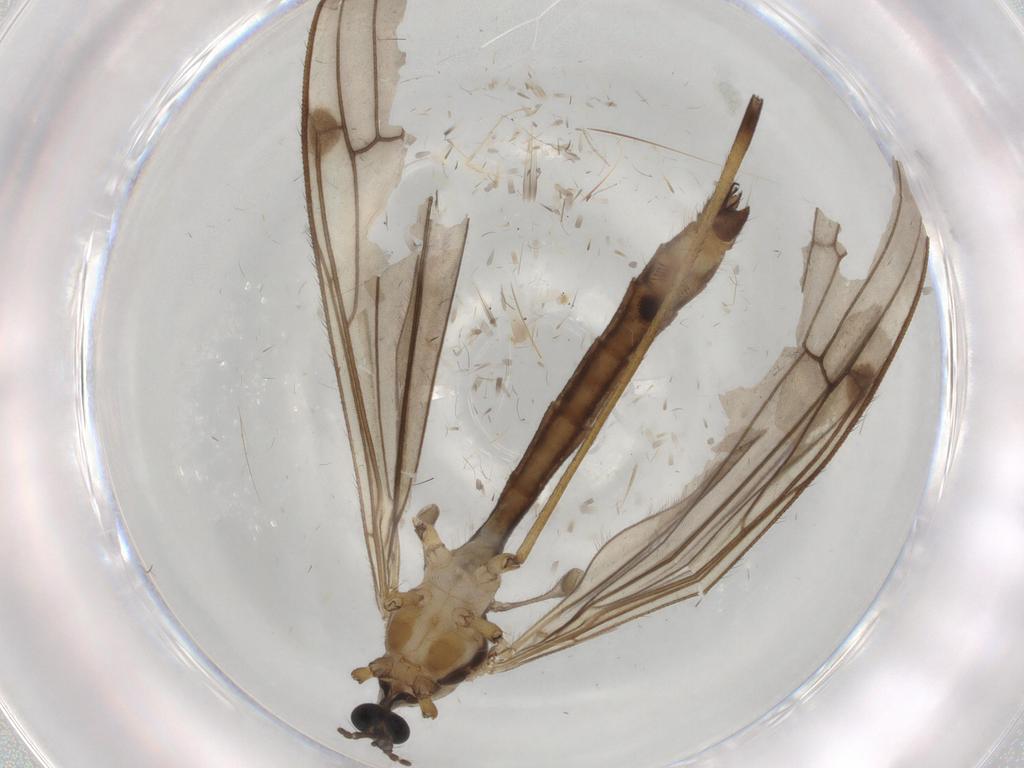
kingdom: Animalia
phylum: Arthropoda
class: Insecta
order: Diptera
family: Limoniidae
